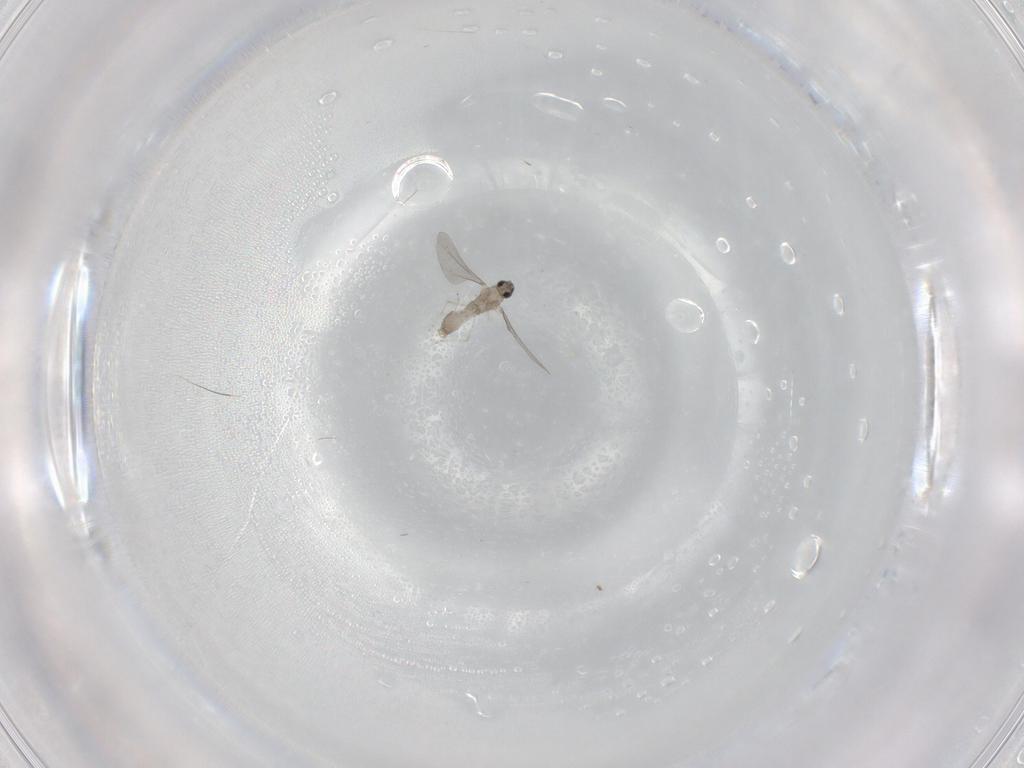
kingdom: Animalia
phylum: Arthropoda
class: Insecta
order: Diptera
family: Cecidomyiidae
